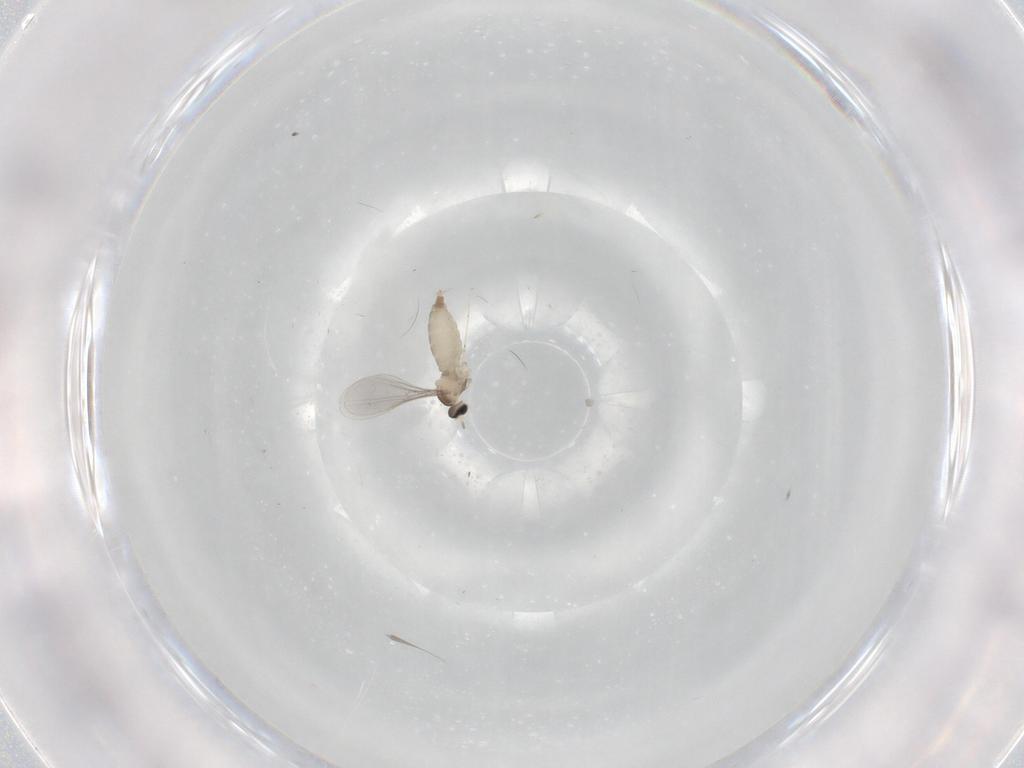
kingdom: Animalia
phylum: Arthropoda
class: Insecta
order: Diptera
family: Cecidomyiidae
